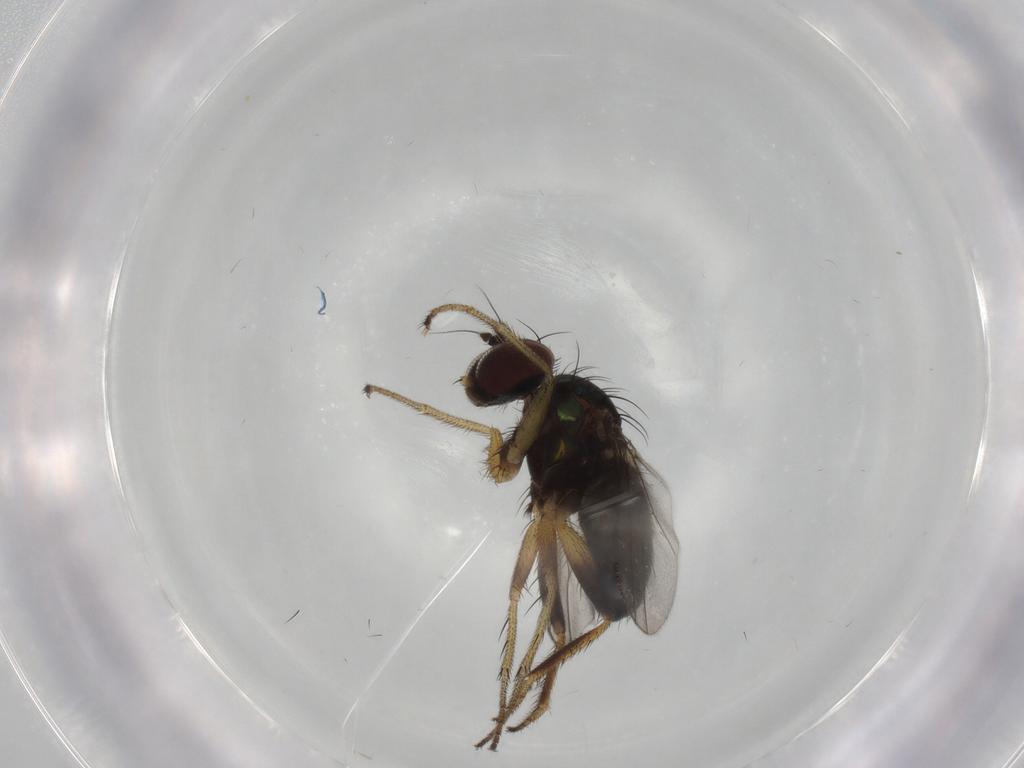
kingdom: Animalia
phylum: Arthropoda
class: Insecta
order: Diptera
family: Dolichopodidae
